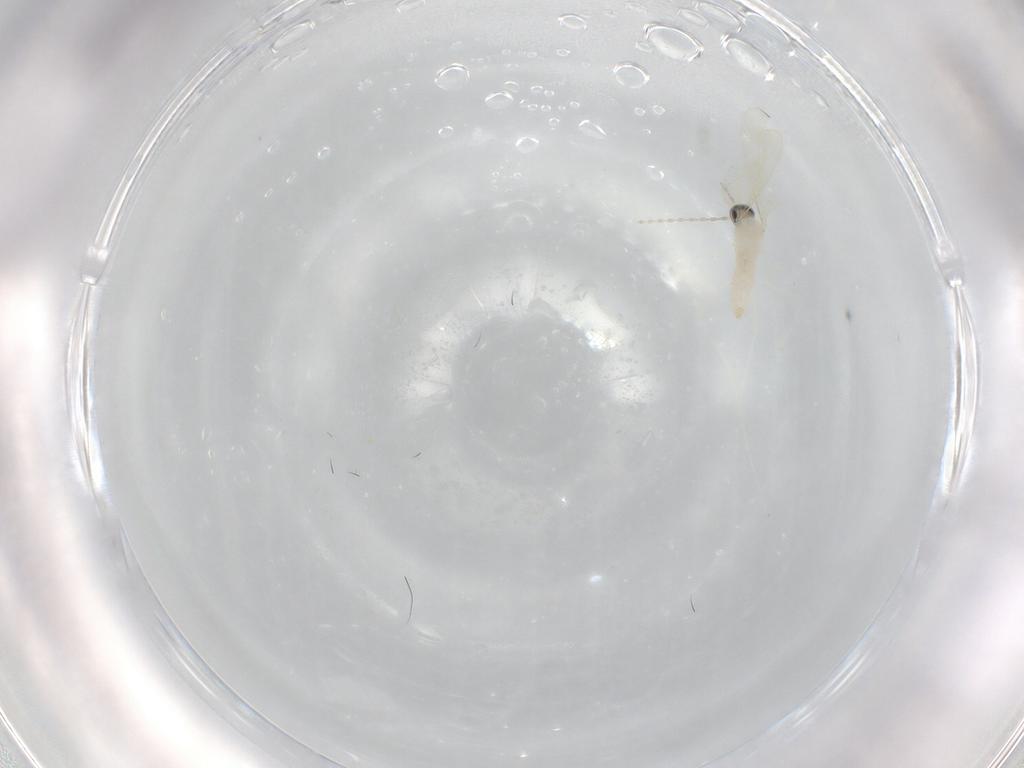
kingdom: Animalia
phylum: Arthropoda
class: Insecta
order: Diptera
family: Cecidomyiidae
